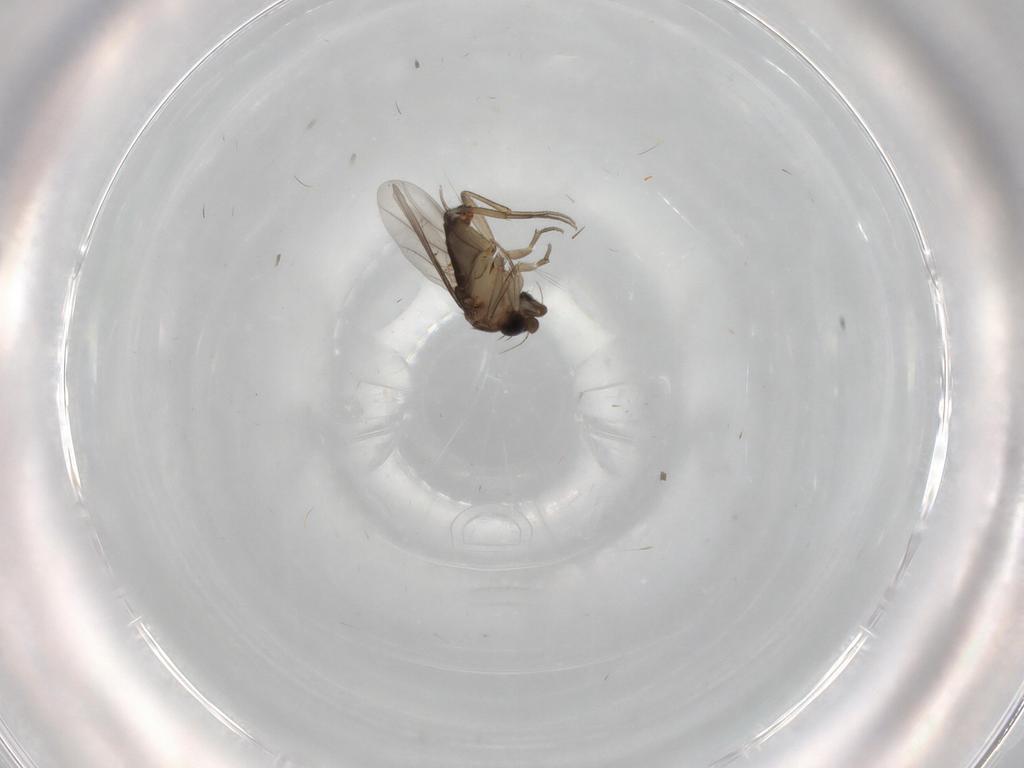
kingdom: Animalia
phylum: Arthropoda
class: Insecta
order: Diptera
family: Phoridae
